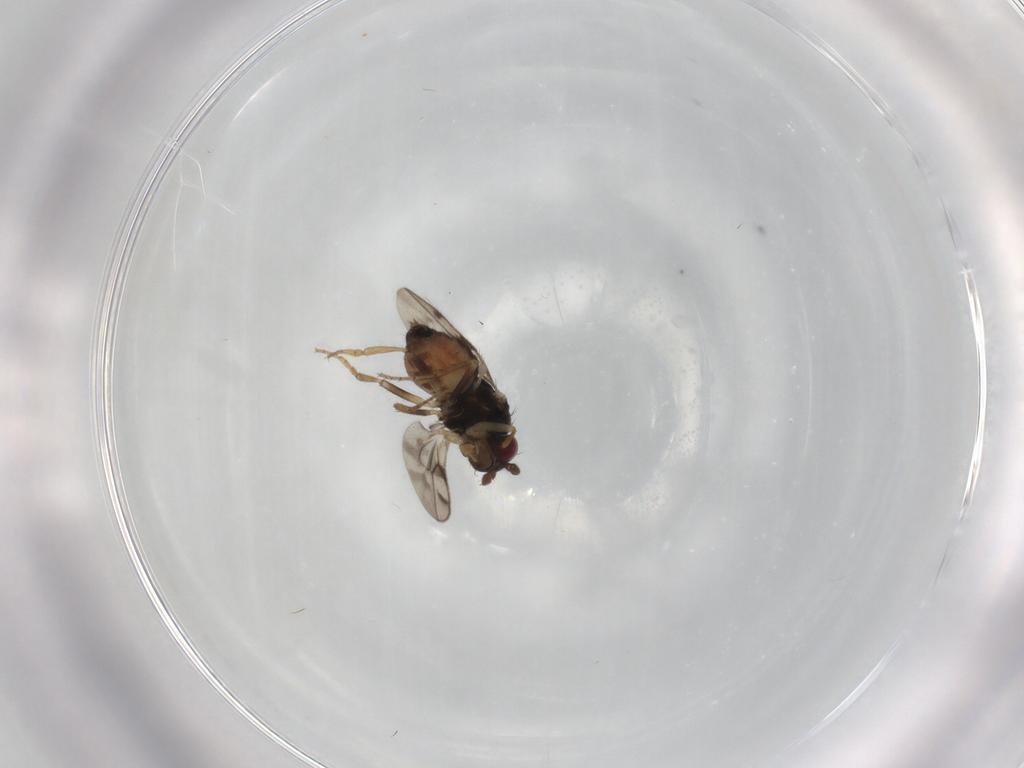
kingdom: Animalia
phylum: Arthropoda
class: Insecta
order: Diptera
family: Sphaeroceridae
